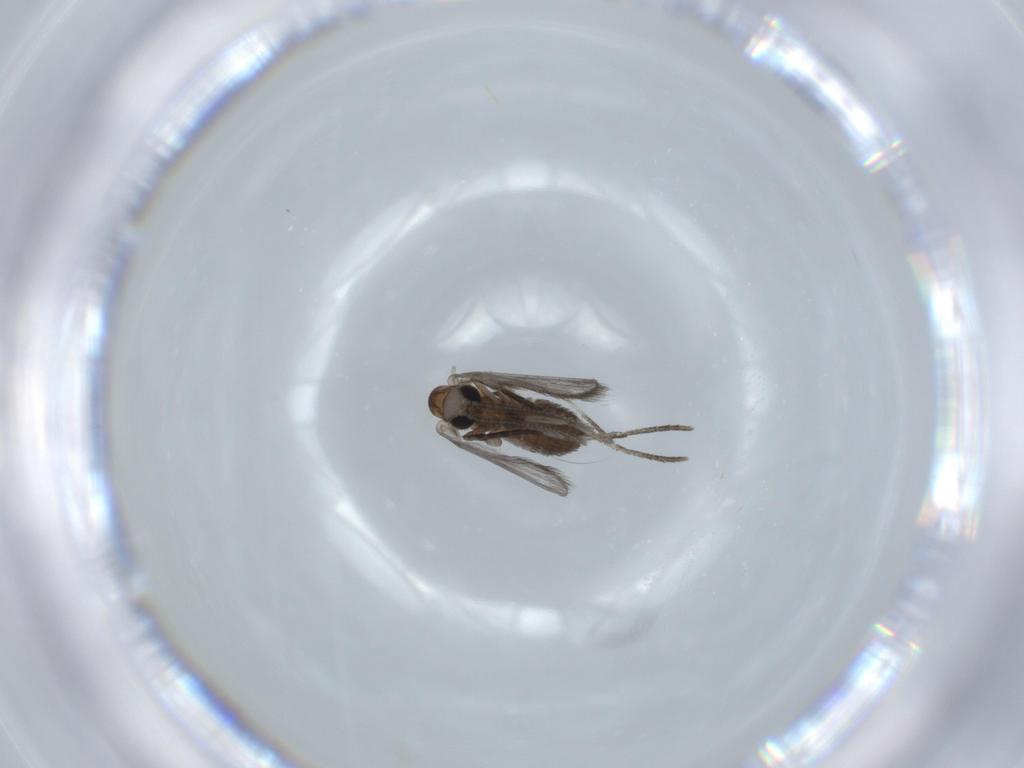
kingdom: Animalia
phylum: Arthropoda
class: Insecta
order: Diptera
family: Psychodidae
